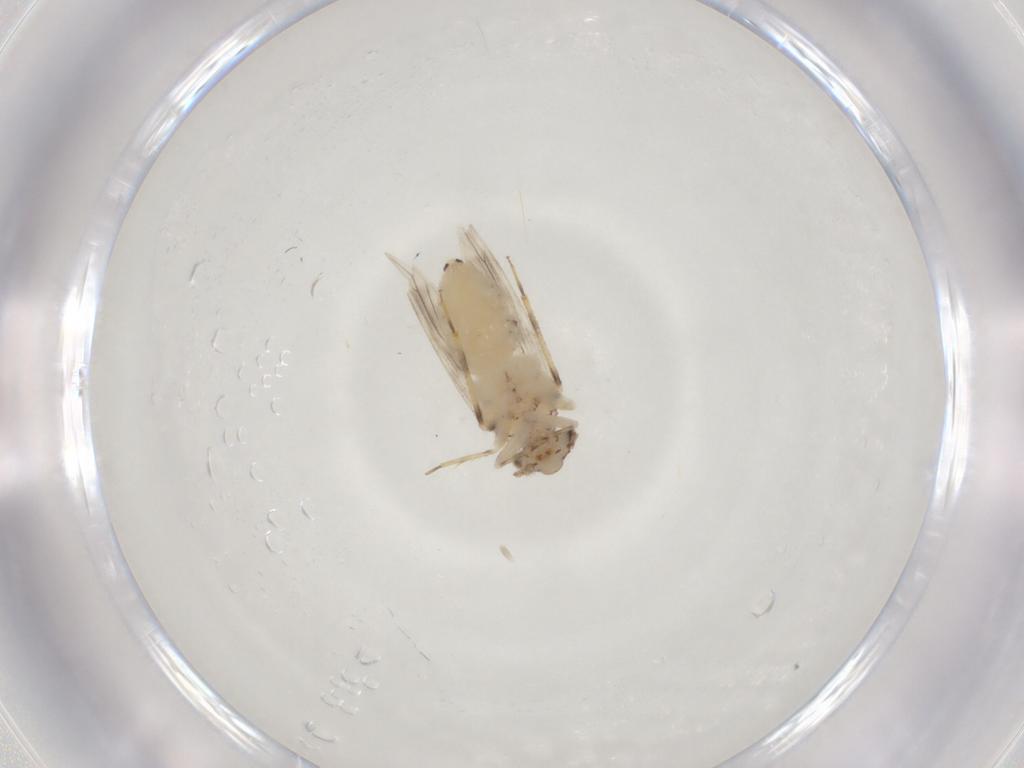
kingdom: Animalia
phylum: Arthropoda
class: Insecta
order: Psocodea
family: Lepidopsocidae
